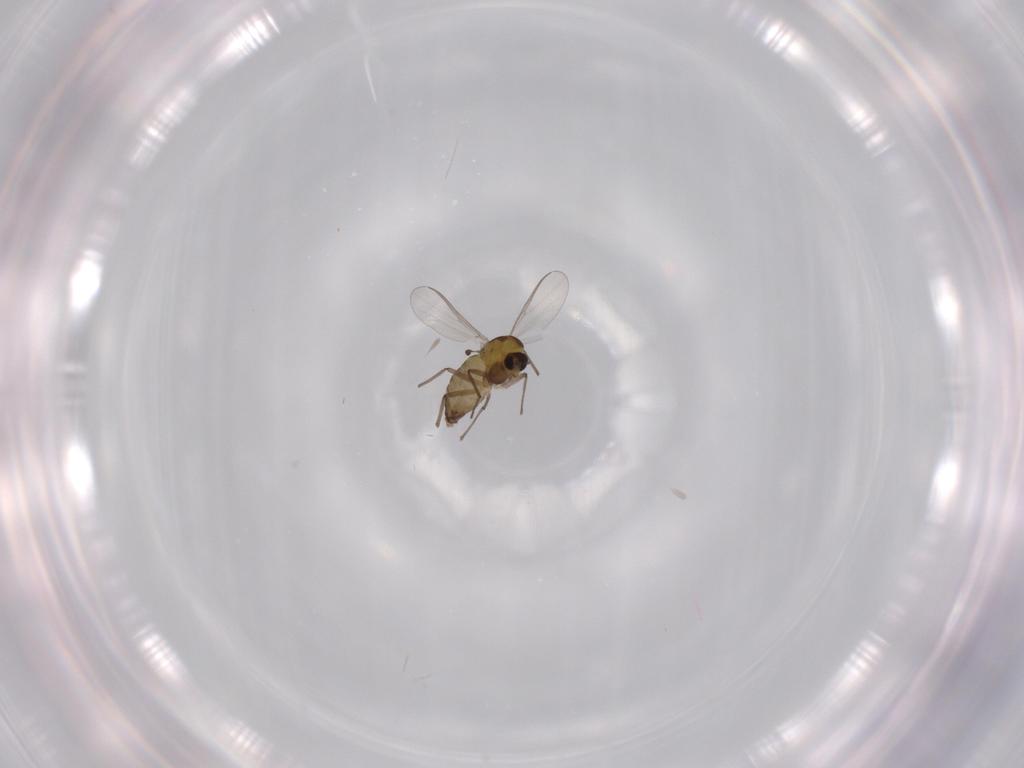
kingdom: Animalia
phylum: Arthropoda
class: Insecta
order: Diptera
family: Chironomidae
